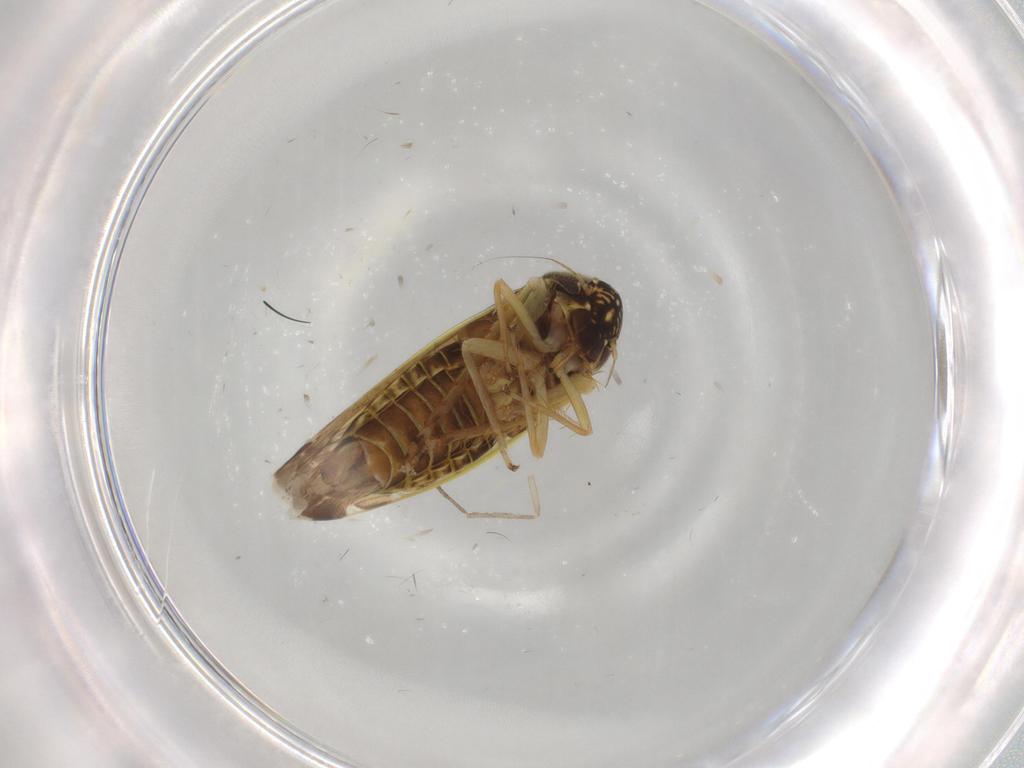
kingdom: Animalia
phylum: Arthropoda
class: Insecta
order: Hemiptera
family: Cicadellidae
